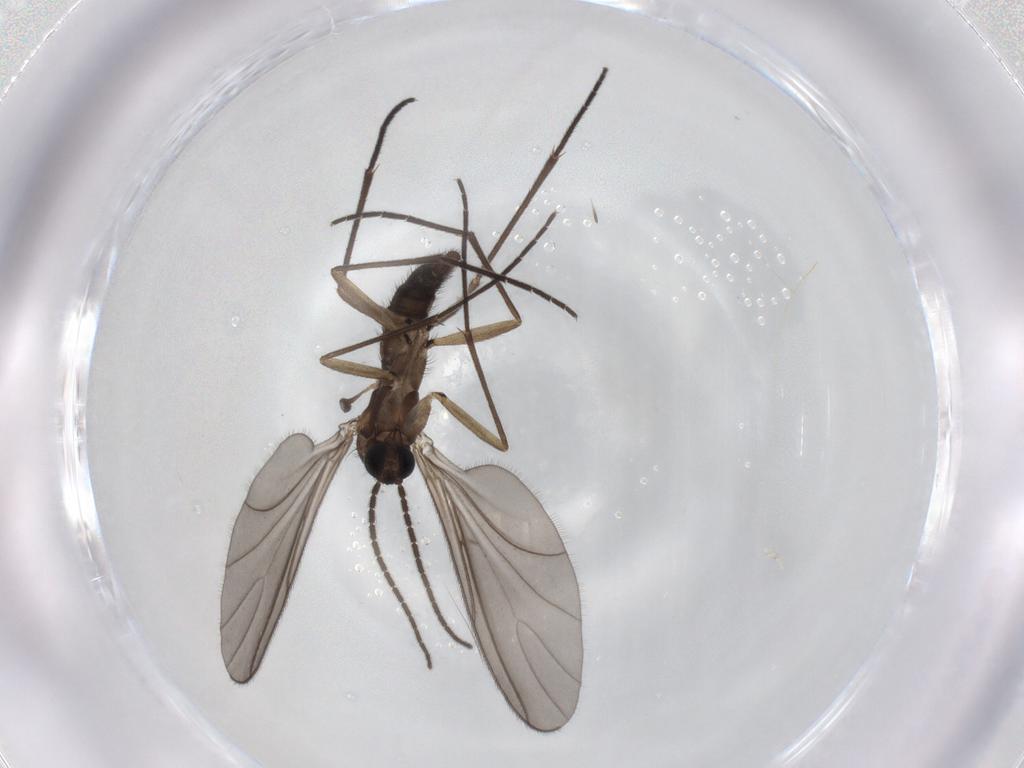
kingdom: Animalia
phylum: Arthropoda
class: Insecta
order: Diptera
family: Sciaridae
